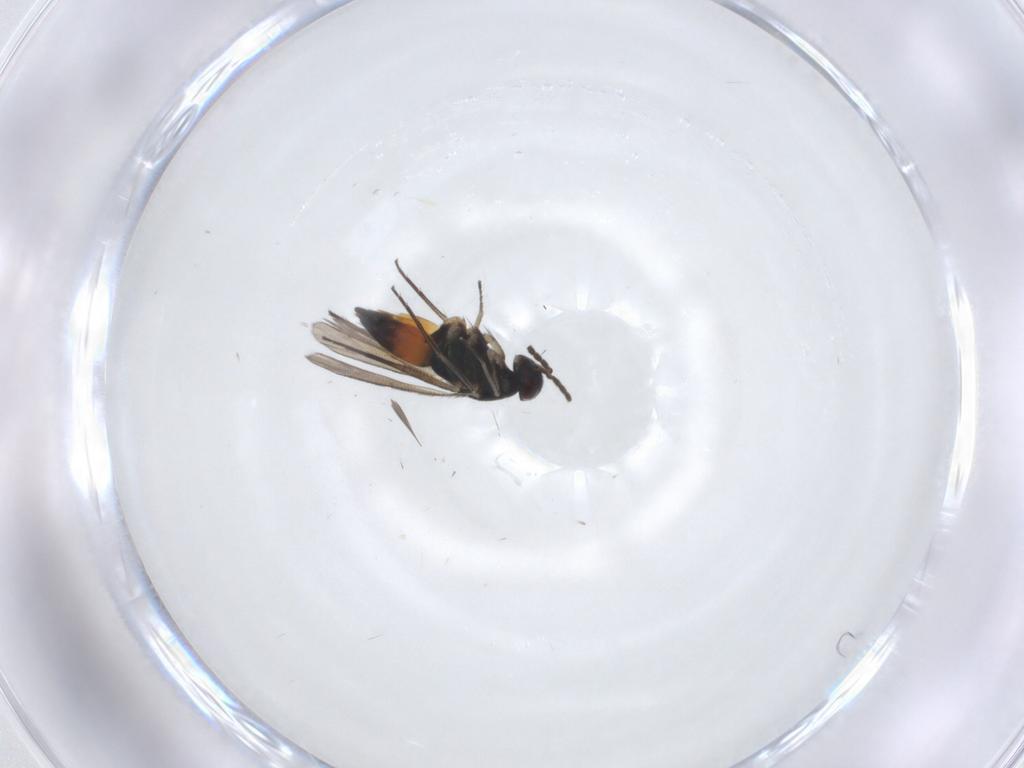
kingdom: Animalia
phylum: Arthropoda
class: Insecta
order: Hymenoptera
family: Eulophidae
